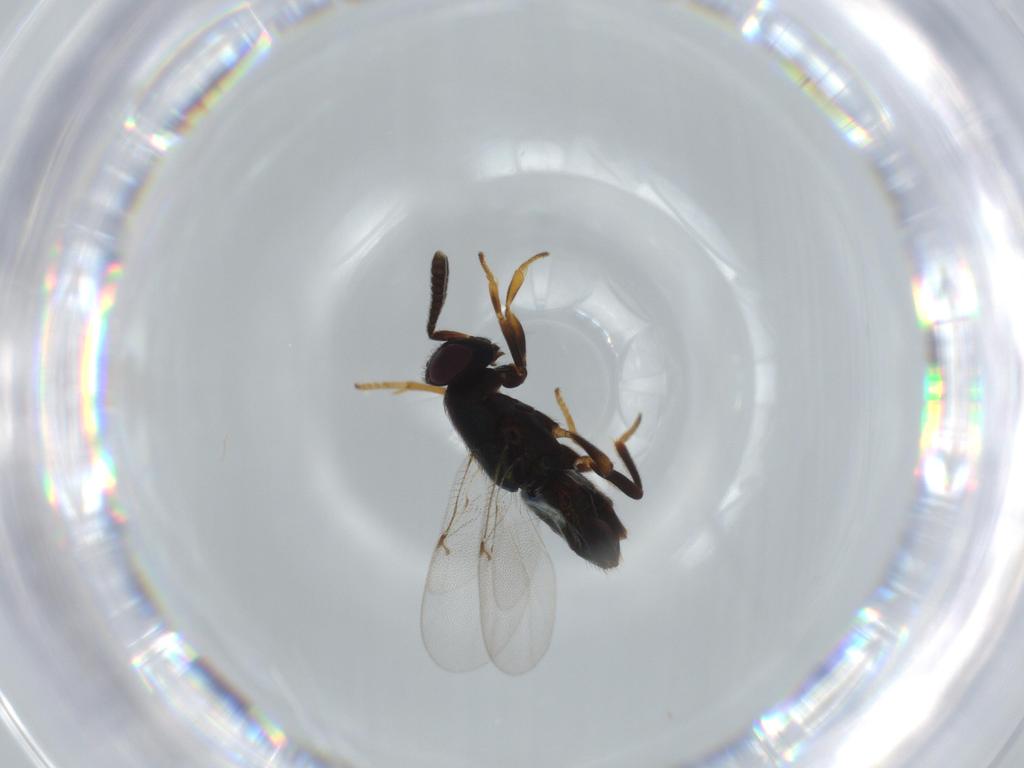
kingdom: Animalia
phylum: Arthropoda
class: Insecta
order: Hymenoptera
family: Encyrtidae
